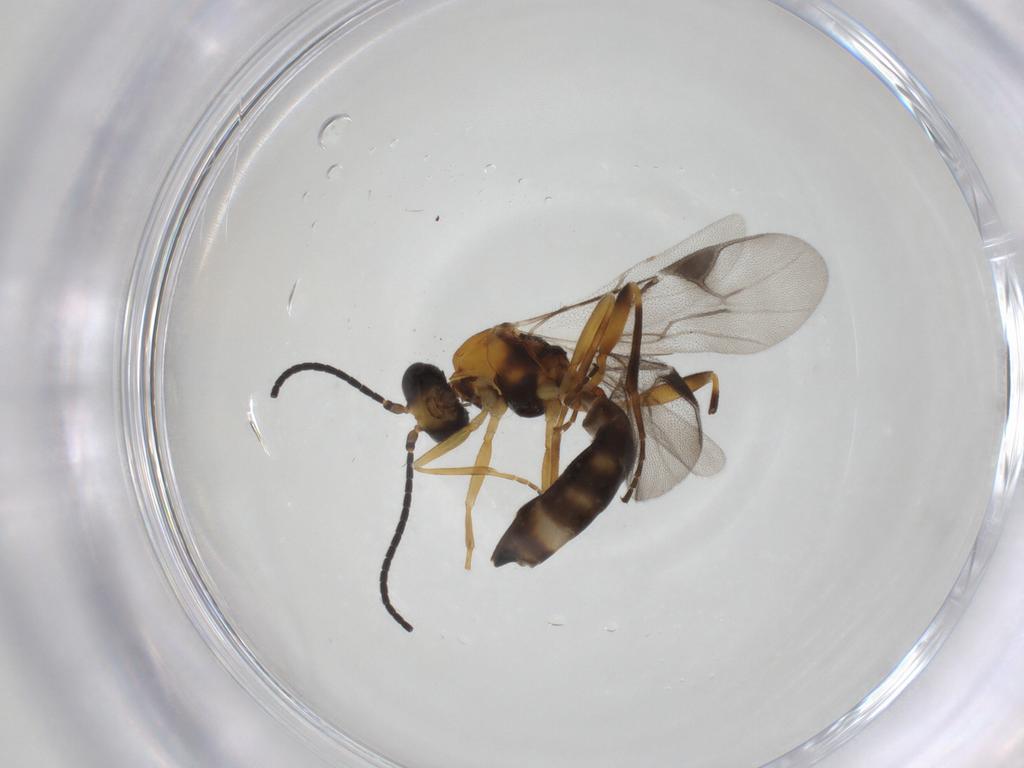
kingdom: Animalia
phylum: Arthropoda
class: Insecta
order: Hymenoptera
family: Braconidae
